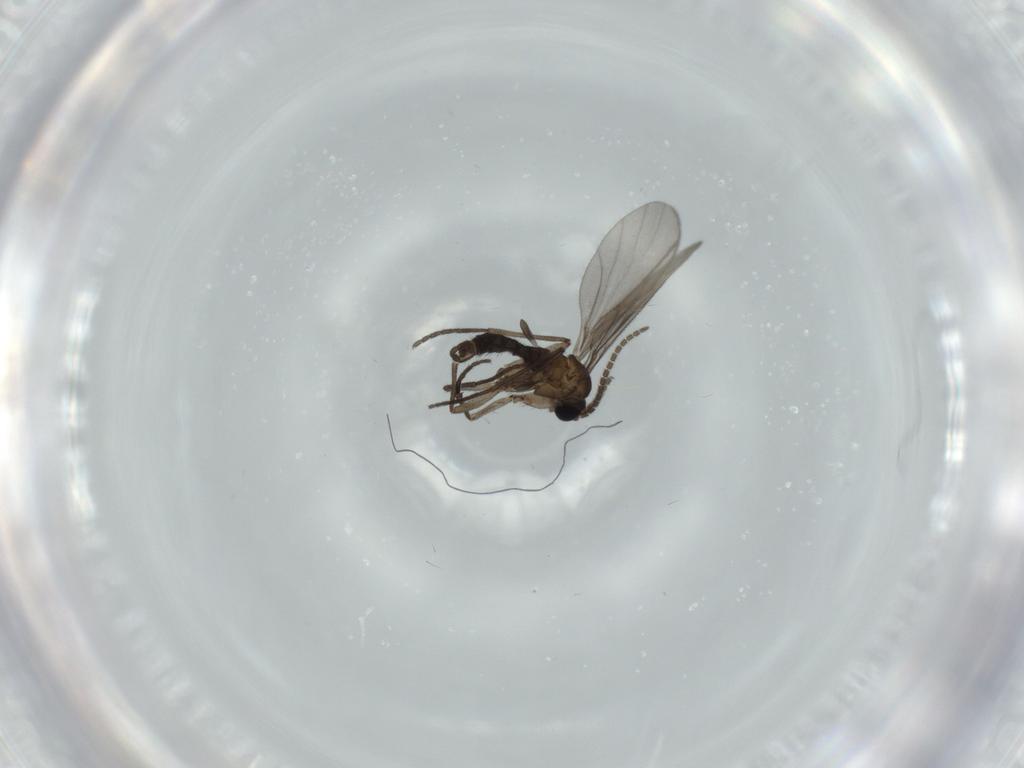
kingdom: Animalia
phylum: Arthropoda
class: Insecta
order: Diptera
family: Sciaridae
